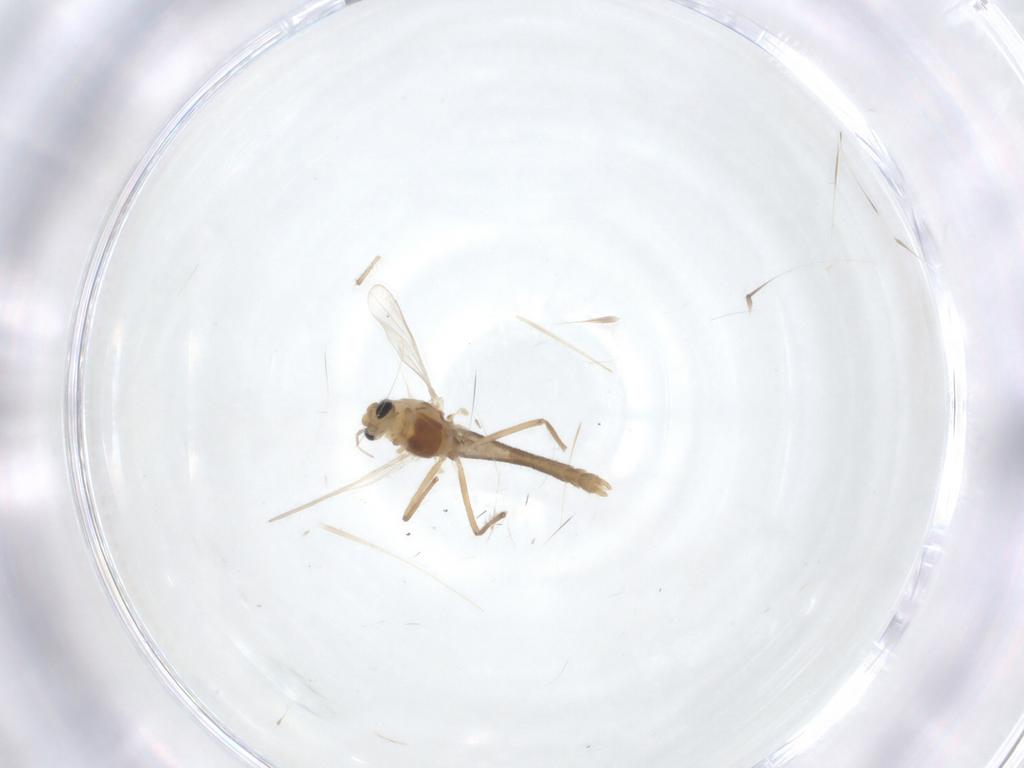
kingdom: Animalia
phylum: Arthropoda
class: Insecta
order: Diptera
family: Chironomidae
